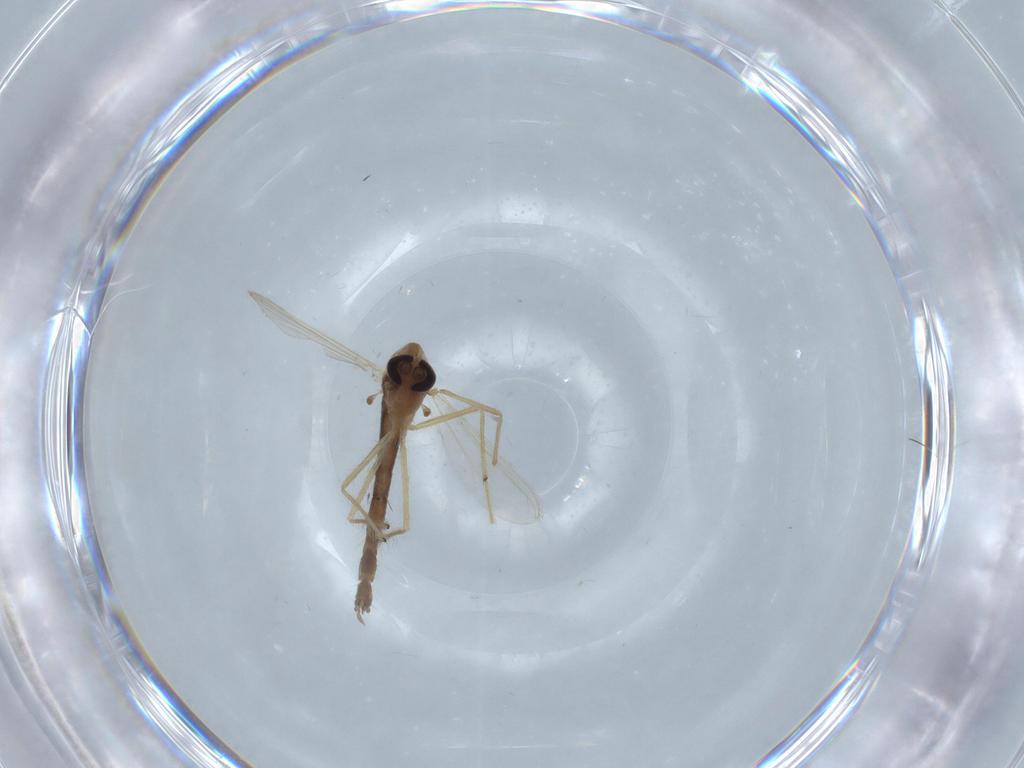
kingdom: Animalia
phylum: Arthropoda
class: Insecta
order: Diptera
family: Chironomidae
